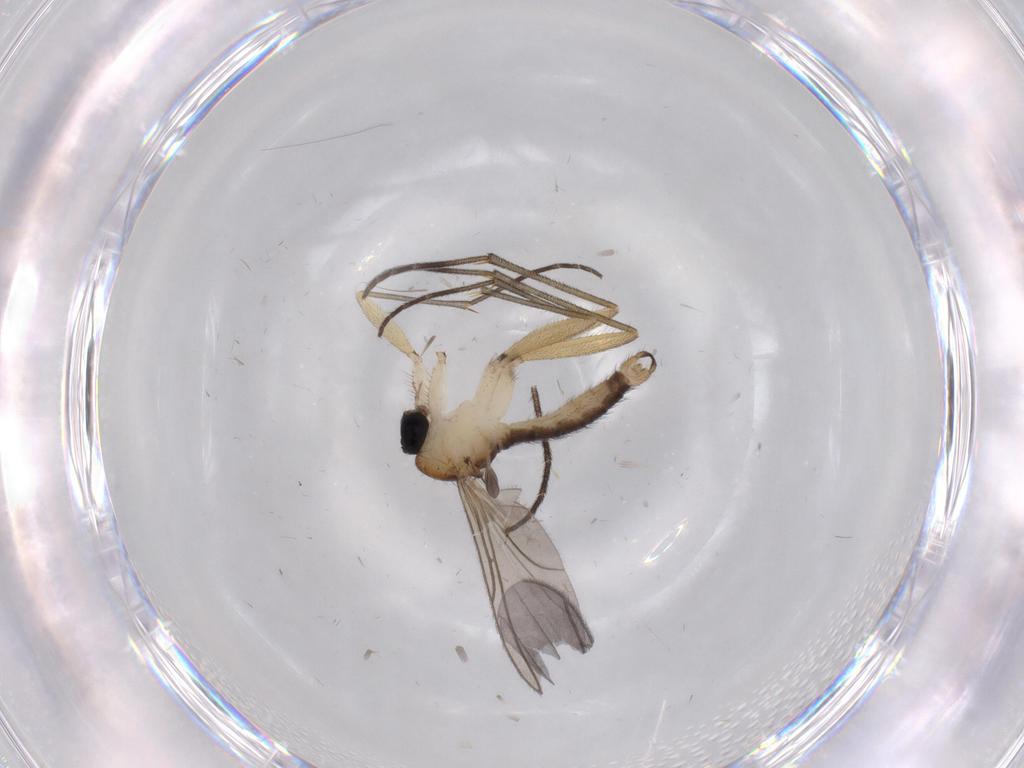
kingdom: Animalia
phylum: Arthropoda
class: Insecta
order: Diptera
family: Sciaridae
